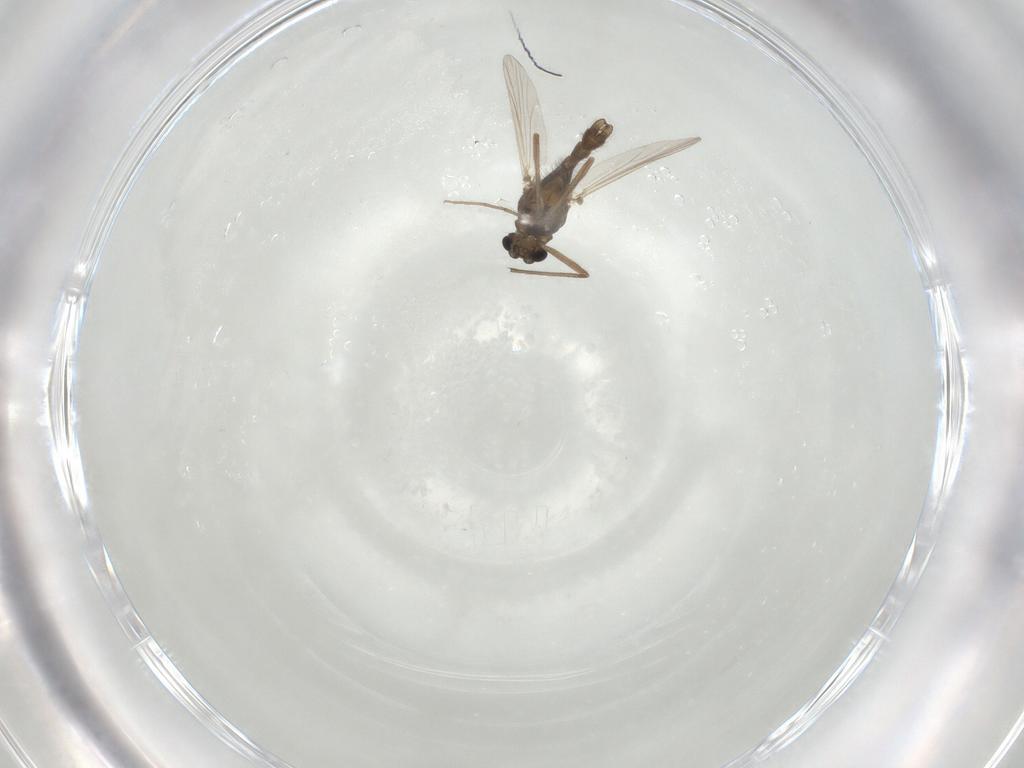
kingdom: Animalia
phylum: Arthropoda
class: Insecta
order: Diptera
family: Chironomidae
